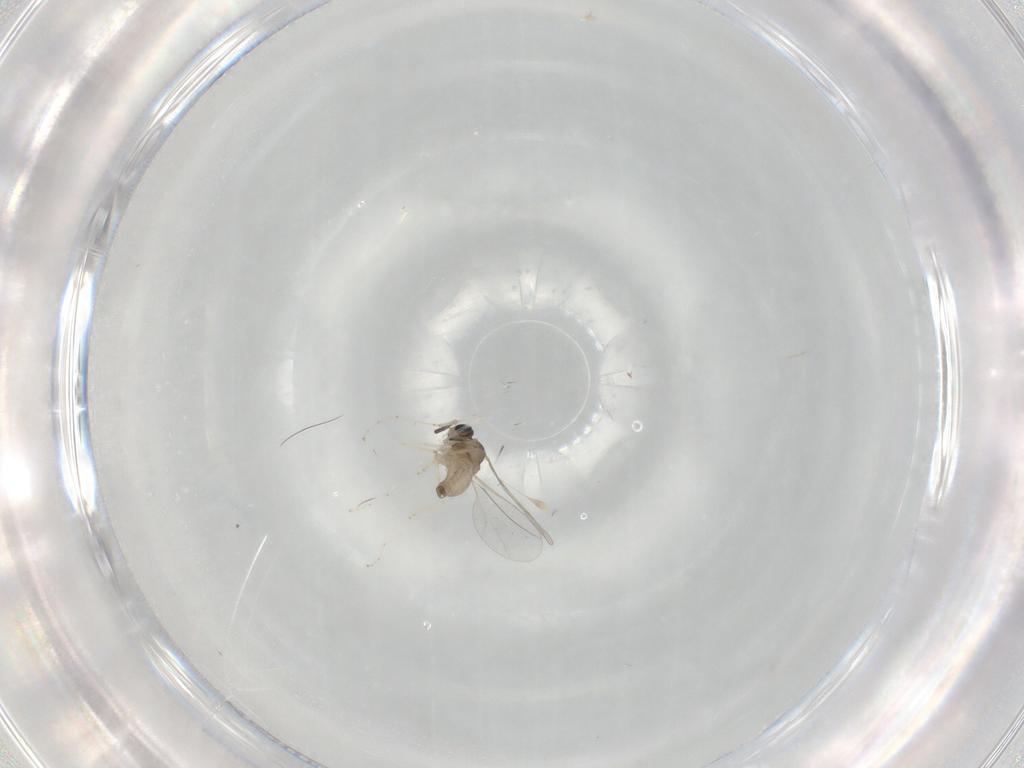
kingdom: Animalia
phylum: Arthropoda
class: Insecta
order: Diptera
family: Cecidomyiidae
